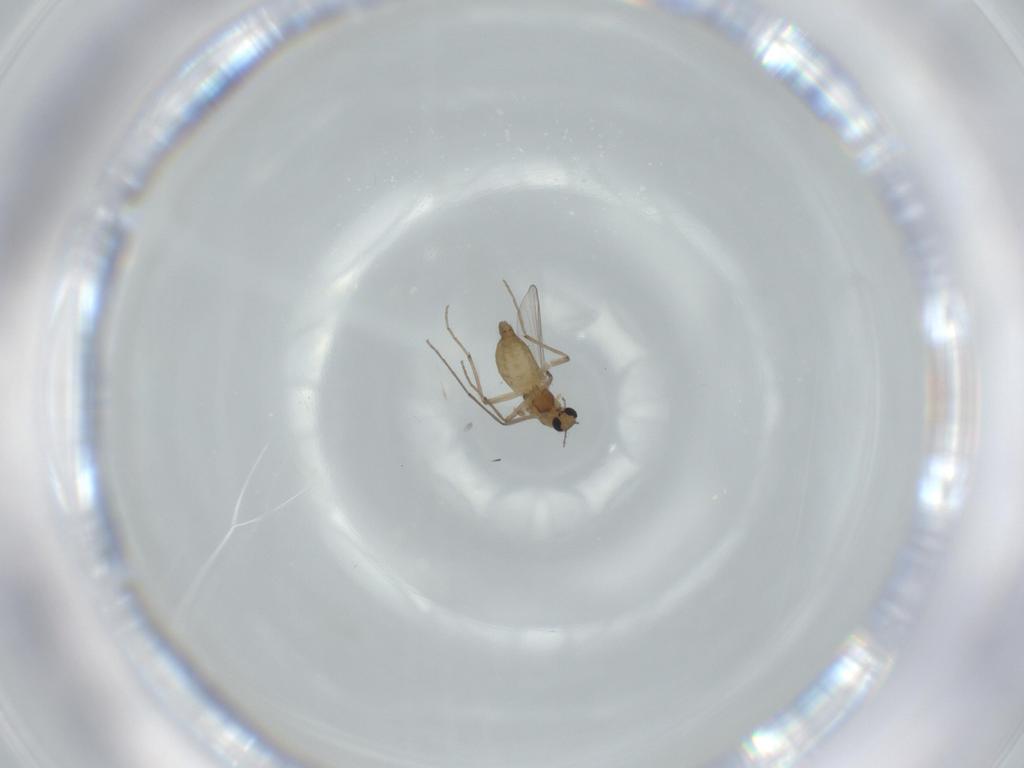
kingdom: Animalia
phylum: Arthropoda
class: Insecta
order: Diptera
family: Chironomidae
